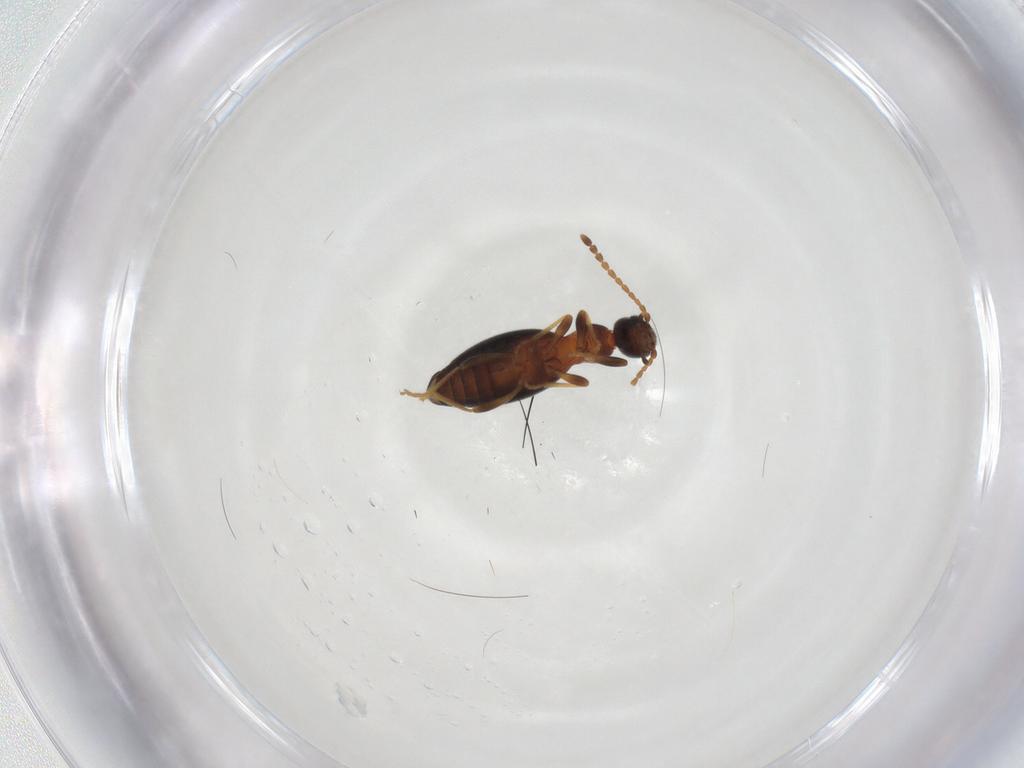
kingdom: Animalia
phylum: Arthropoda
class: Insecta
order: Coleoptera
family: Anthicidae
